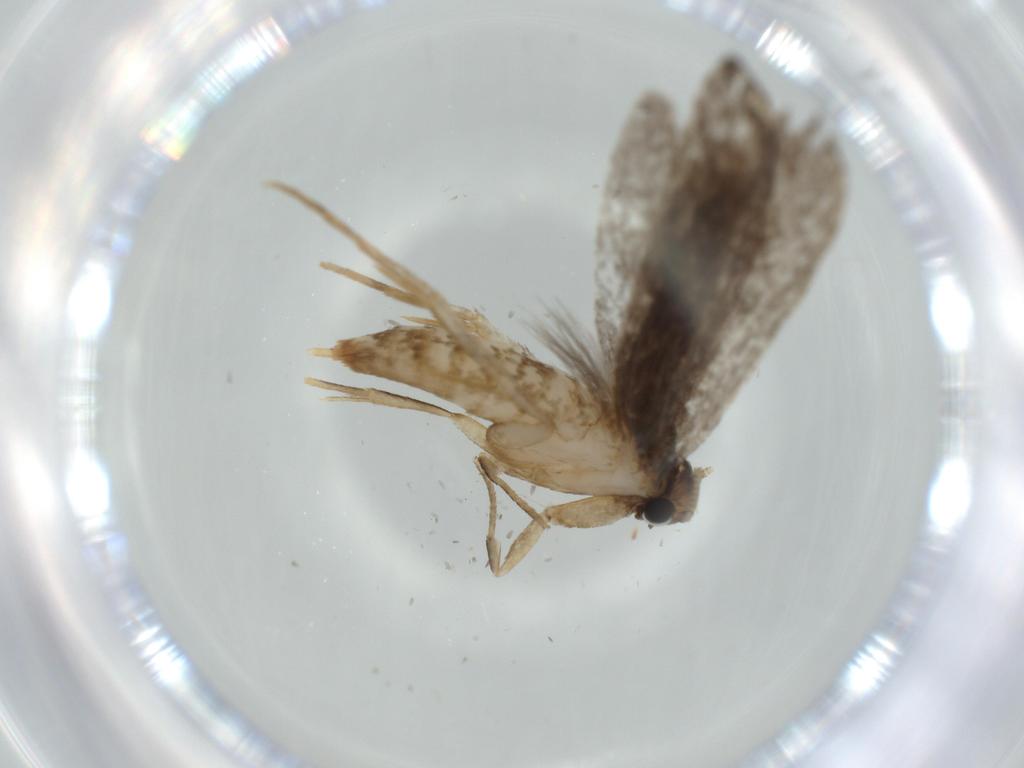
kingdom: Animalia
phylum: Arthropoda
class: Insecta
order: Lepidoptera
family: Tineidae
